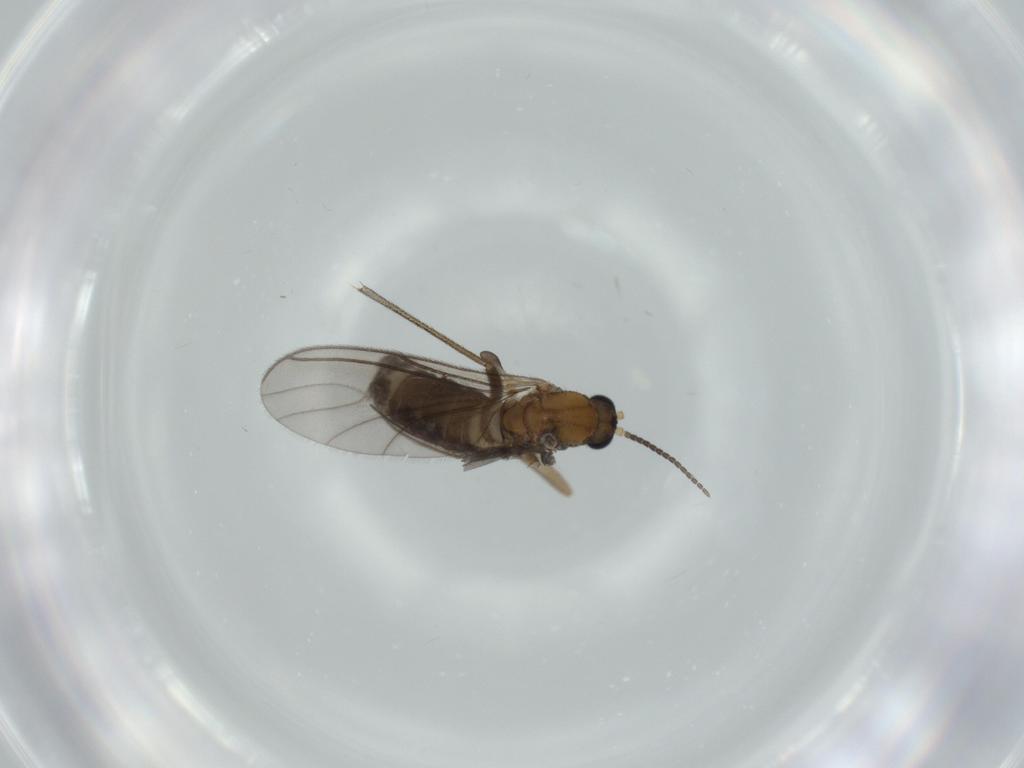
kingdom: Animalia
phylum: Arthropoda
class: Insecta
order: Diptera
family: Sciaridae
